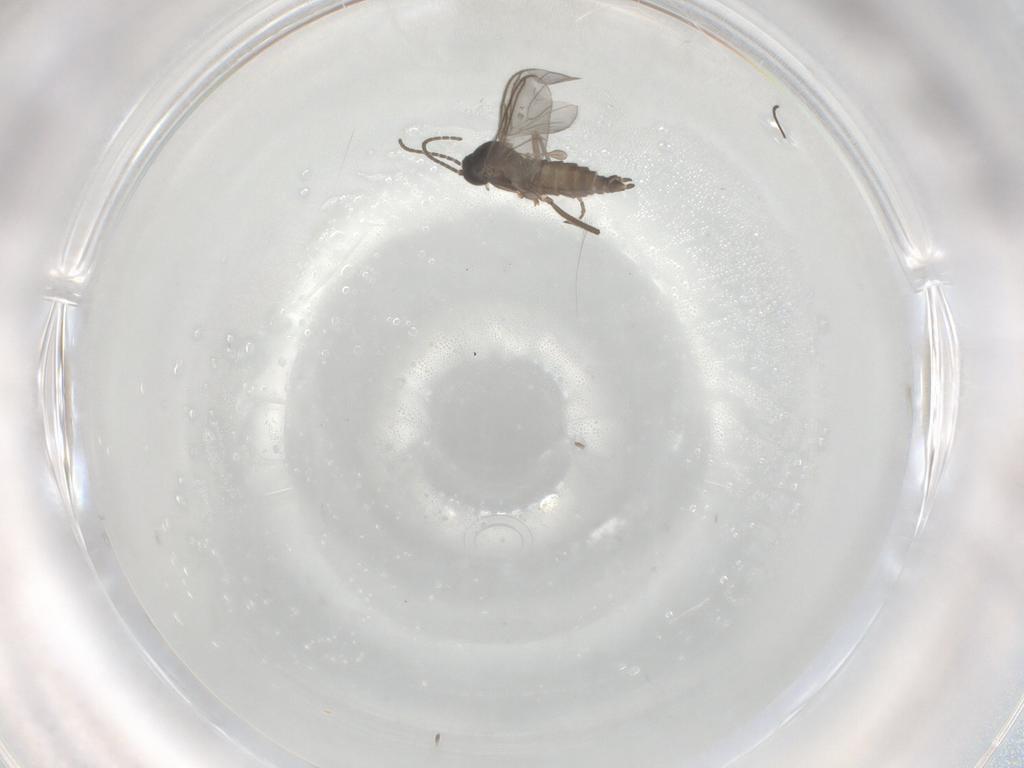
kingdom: Animalia
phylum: Arthropoda
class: Insecta
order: Diptera
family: Sciaridae
